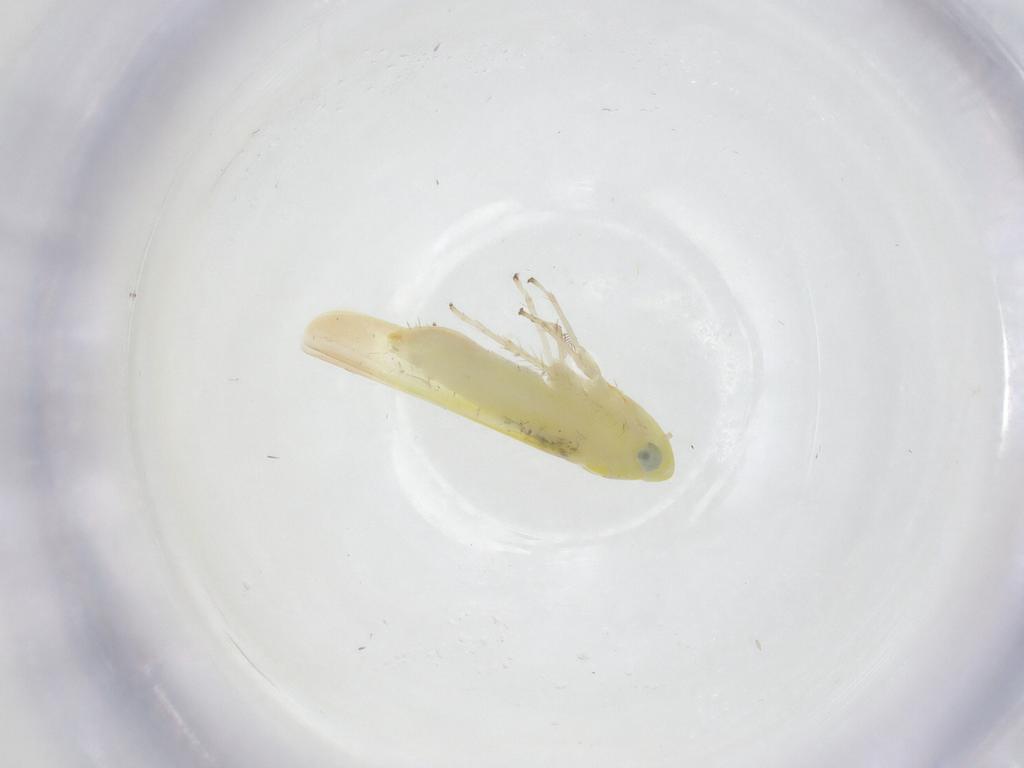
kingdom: Animalia
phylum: Arthropoda
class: Insecta
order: Hemiptera
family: Cicadellidae
